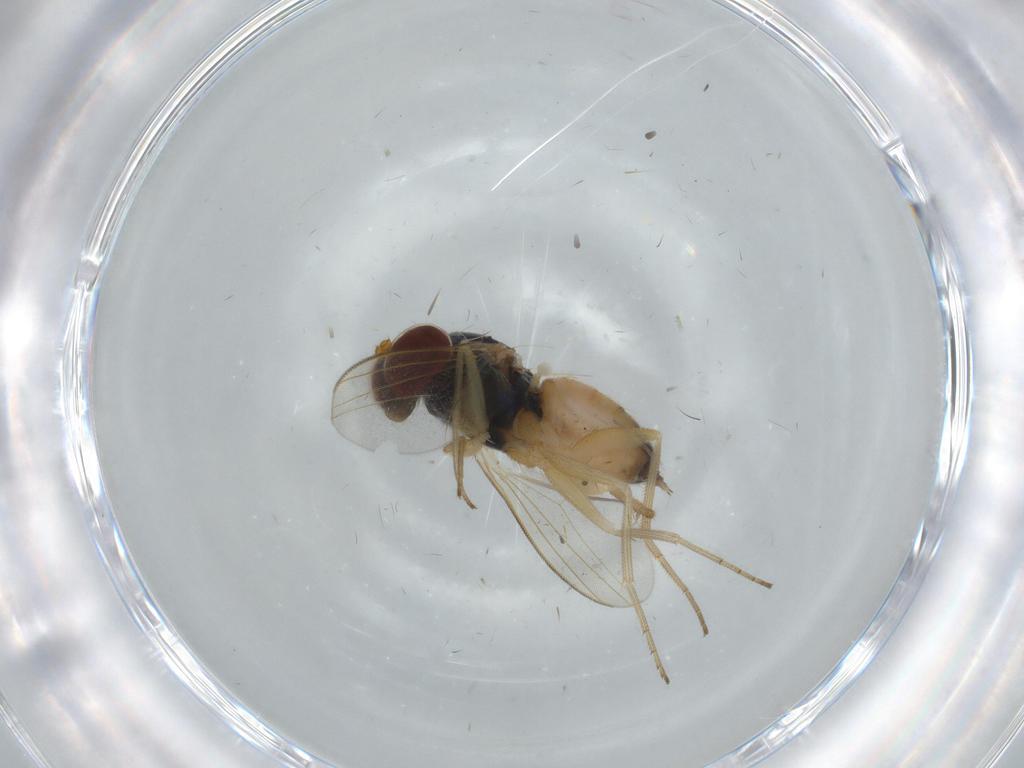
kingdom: Animalia
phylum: Arthropoda
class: Insecta
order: Diptera
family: Dolichopodidae
